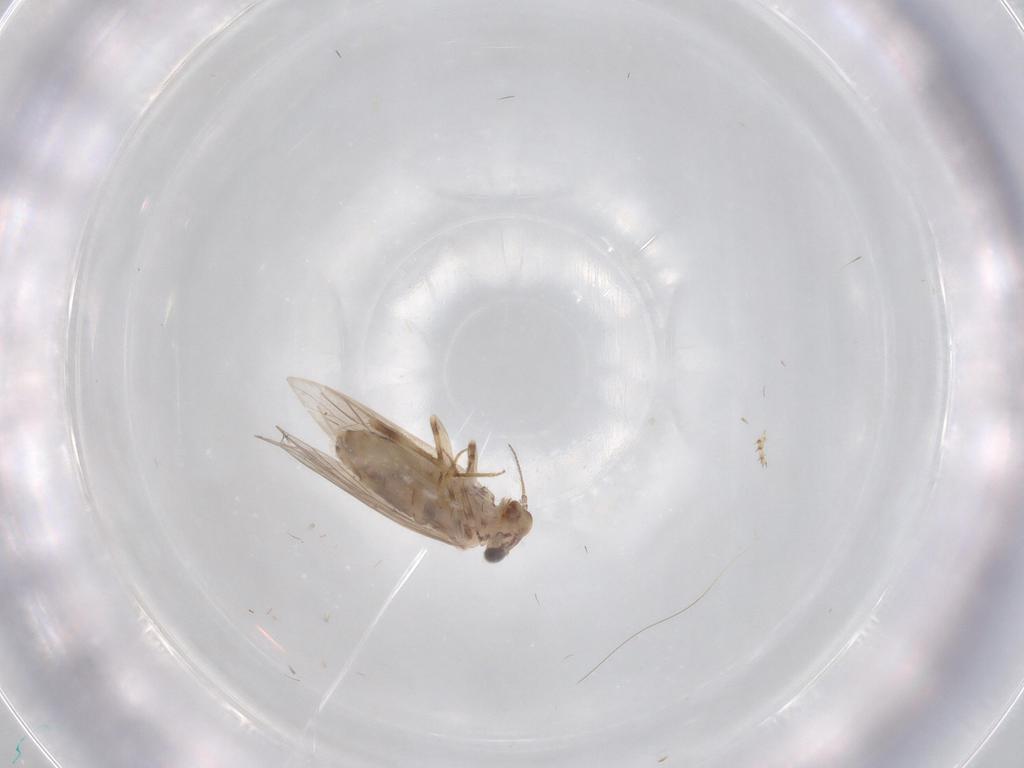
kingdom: Animalia
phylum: Arthropoda
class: Insecta
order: Psocodea
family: Lepidopsocidae
